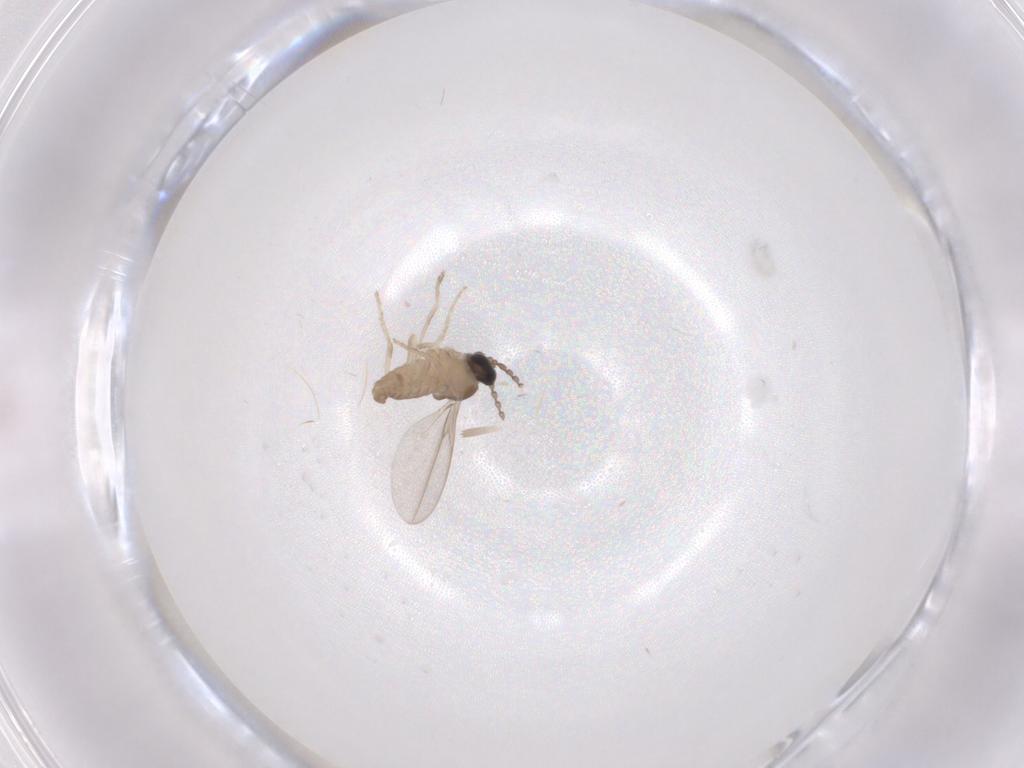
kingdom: Animalia
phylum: Arthropoda
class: Insecta
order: Diptera
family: Cecidomyiidae
